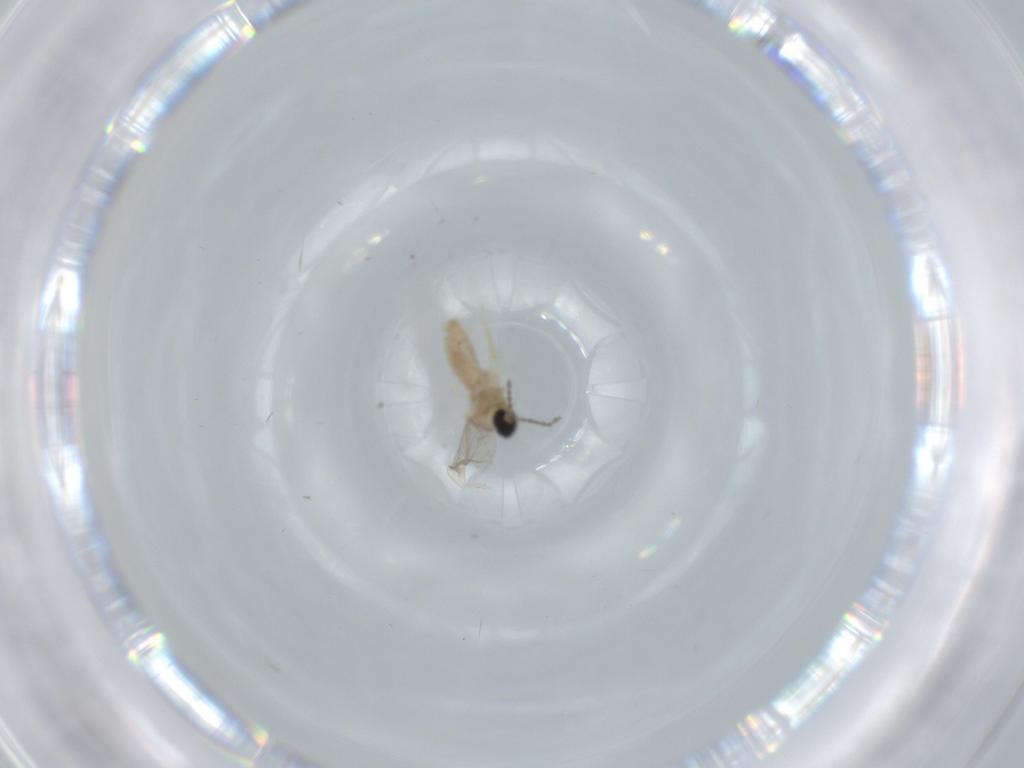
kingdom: Animalia
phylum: Arthropoda
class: Insecta
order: Diptera
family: Cecidomyiidae
